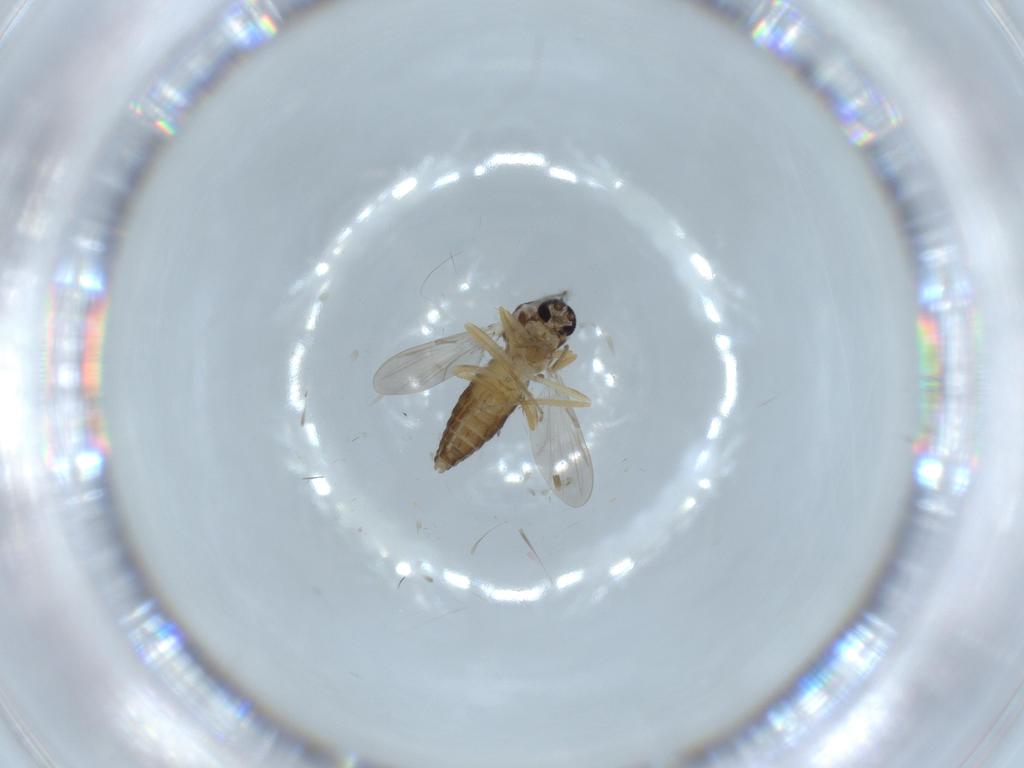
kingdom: Animalia
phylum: Arthropoda
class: Insecta
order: Diptera
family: Ceratopogonidae
